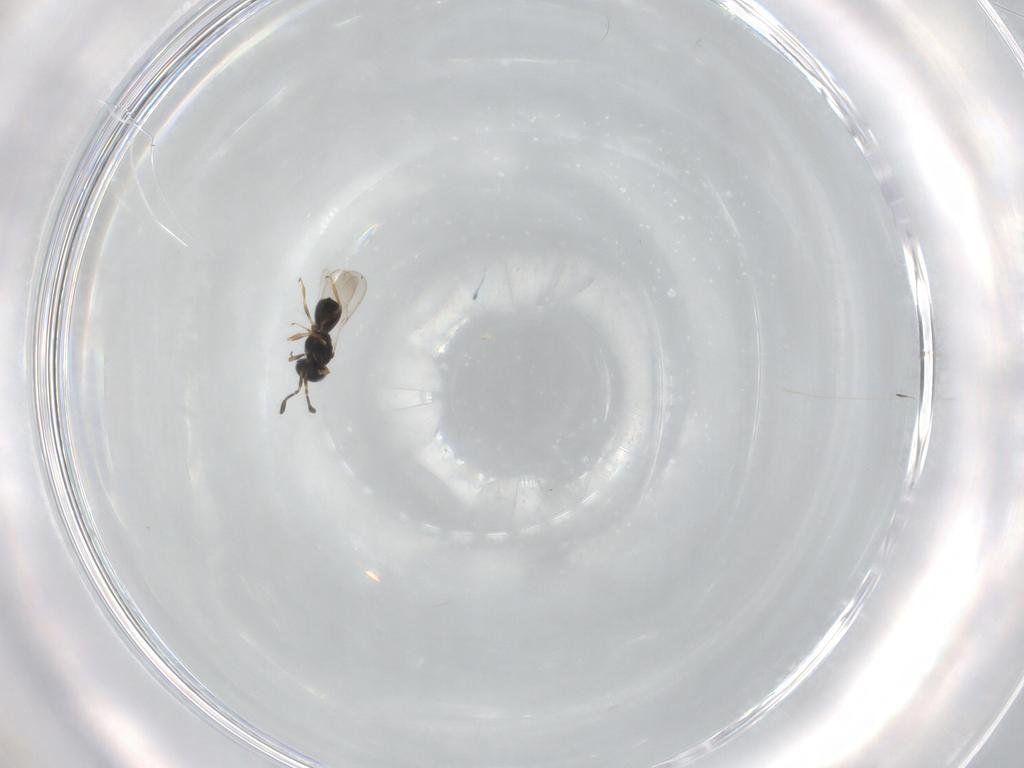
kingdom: Animalia
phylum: Arthropoda
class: Insecta
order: Hymenoptera
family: Scelionidae
